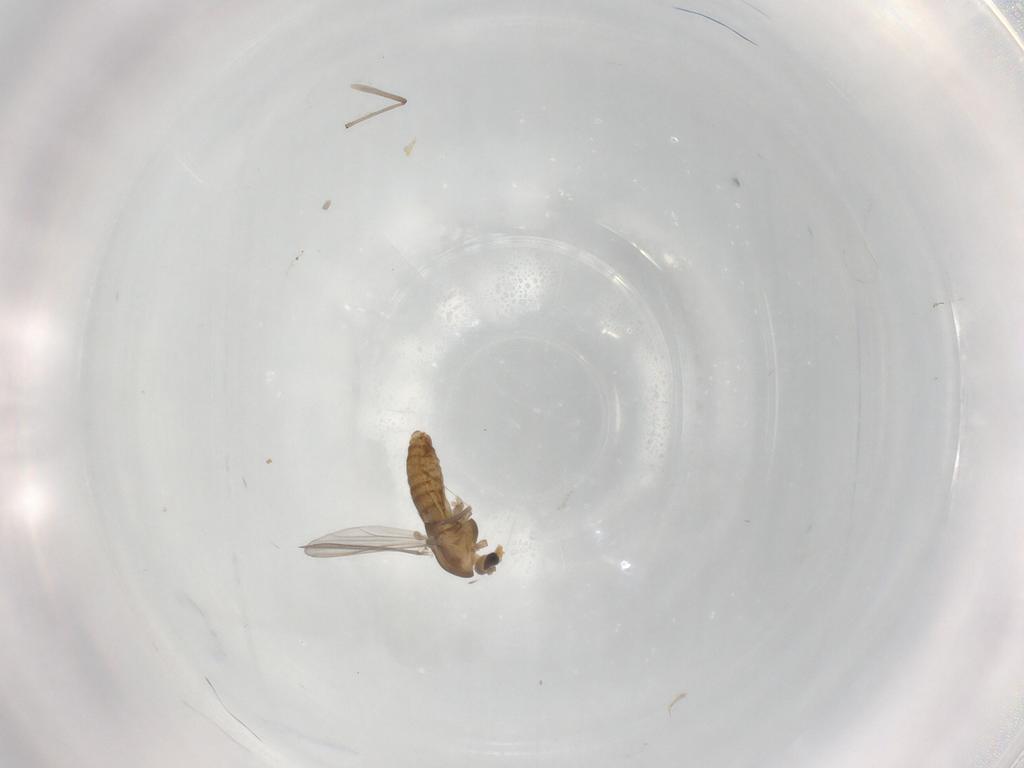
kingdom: Animalia
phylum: Arthropoda
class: Insecta
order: Diptera
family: Chironomidae
